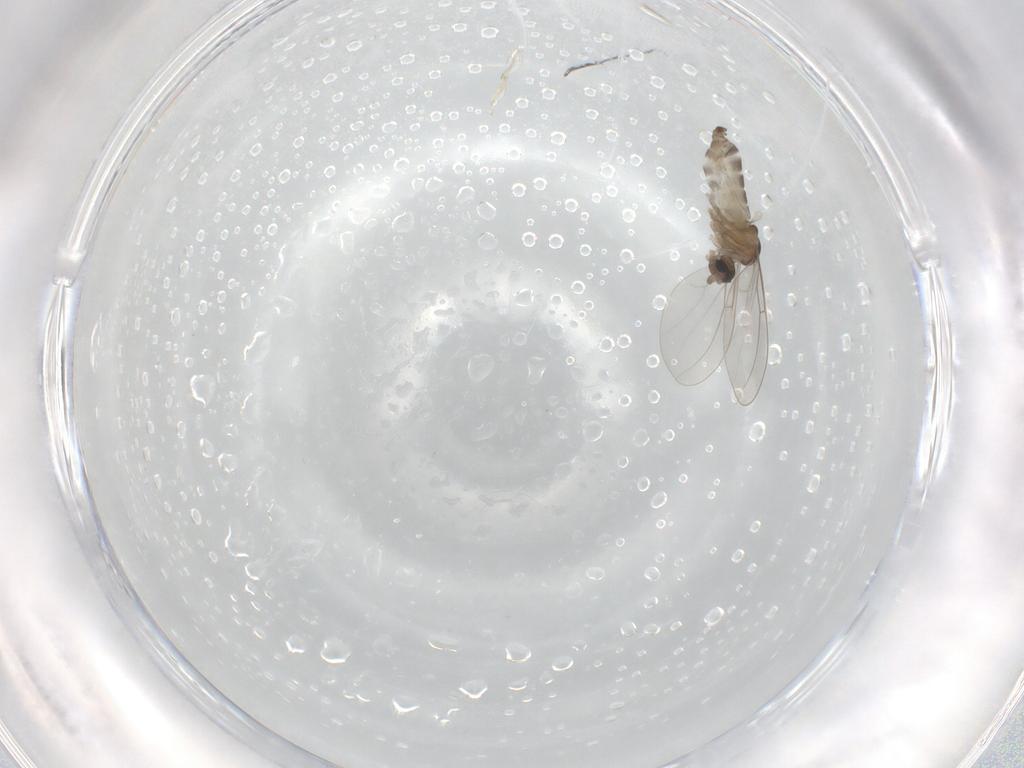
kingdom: Animalia
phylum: Arthropoda
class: Insecta
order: Diptera
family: Cecidomyiidae
